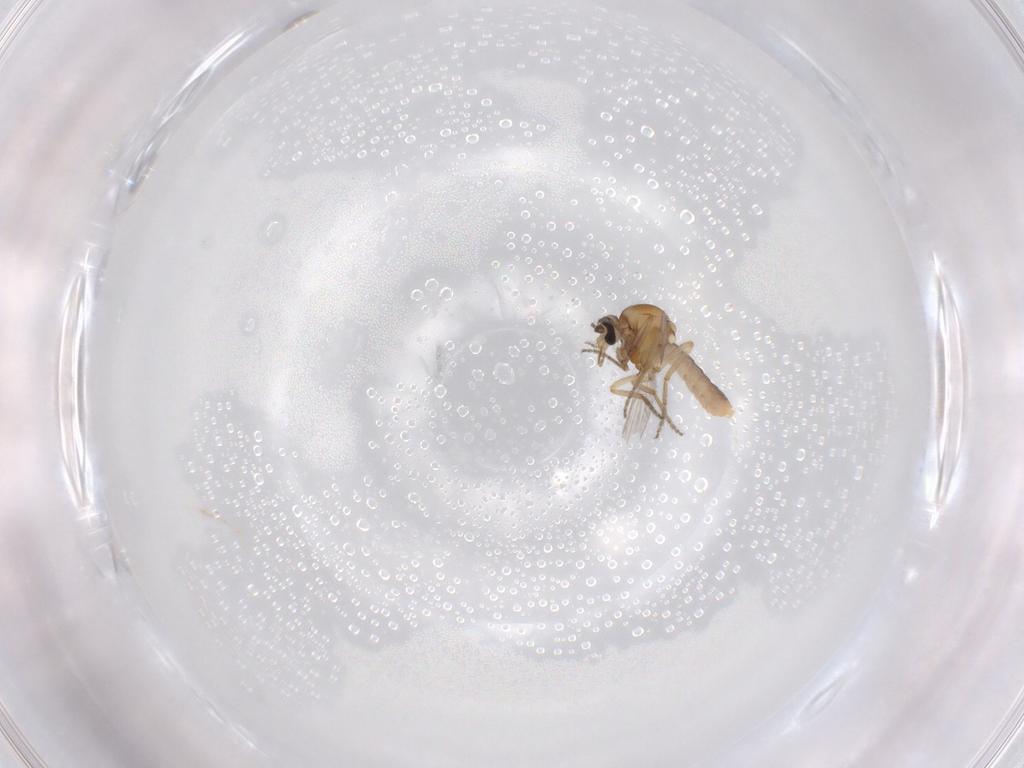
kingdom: Animalia
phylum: Arthropoda
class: Insecta
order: Diptera
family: Ceratopogonidae
